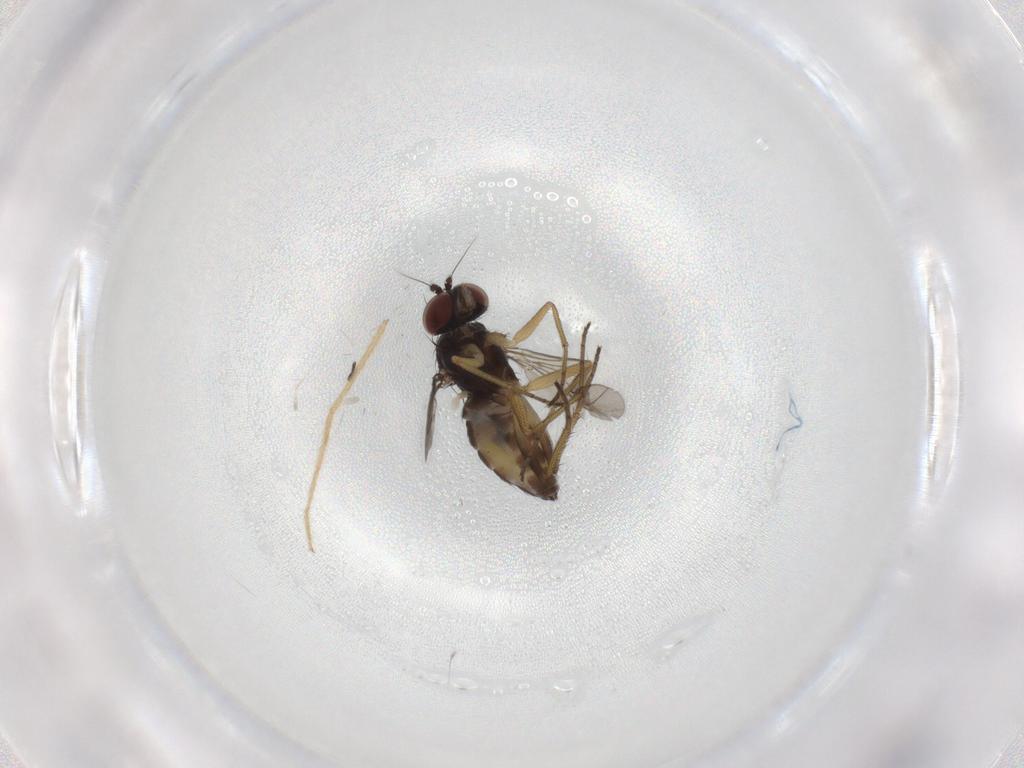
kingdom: Animalia
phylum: Arthropoda
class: Insecta
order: Diptera
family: Dolichopodidae
